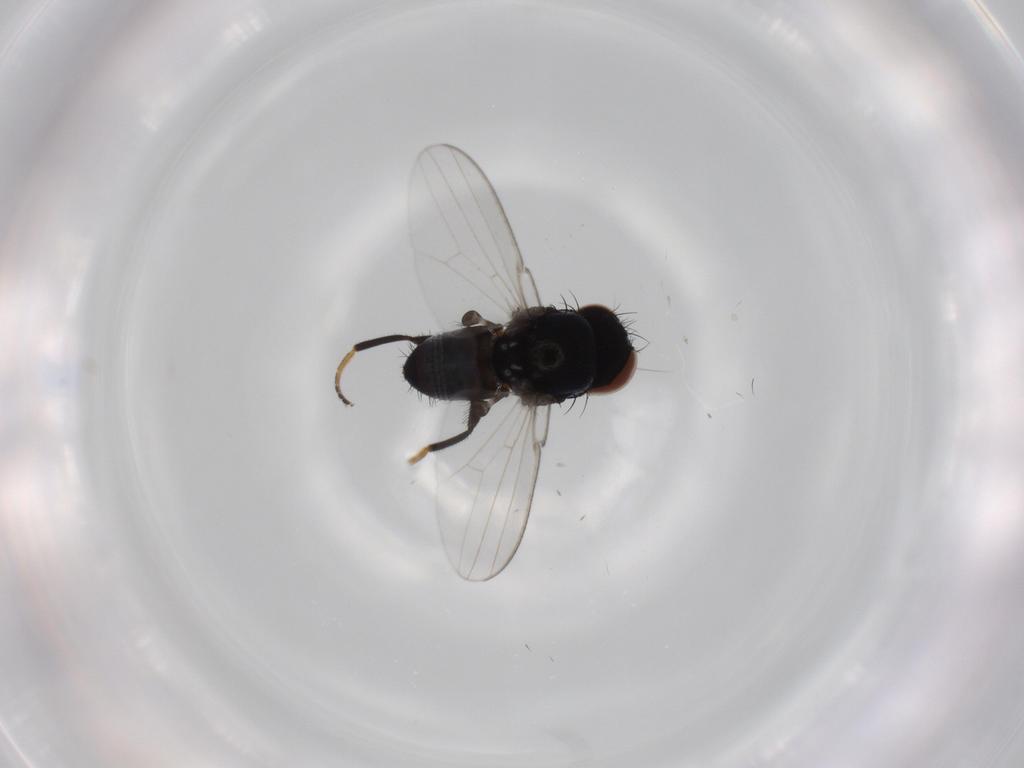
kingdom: Animalia
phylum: Arthropoda
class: Insecta
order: Diptera
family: Milichiidae
